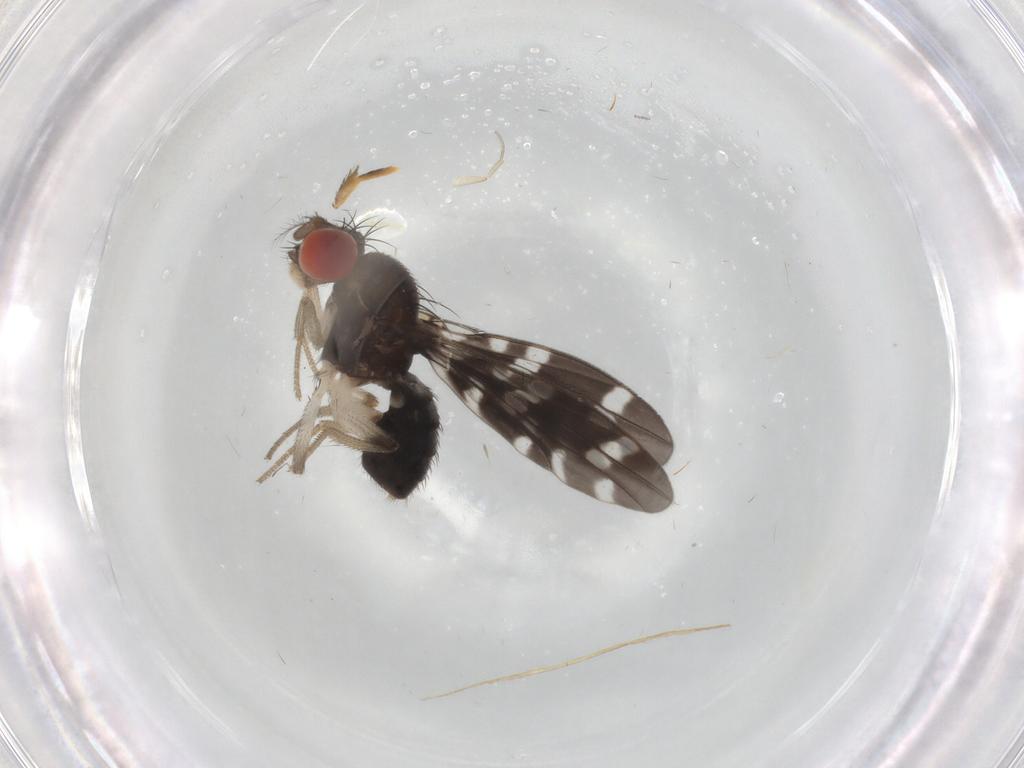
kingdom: Animalia
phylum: Arthropoda
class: Insecta
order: Diptera
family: Drosophilidae
